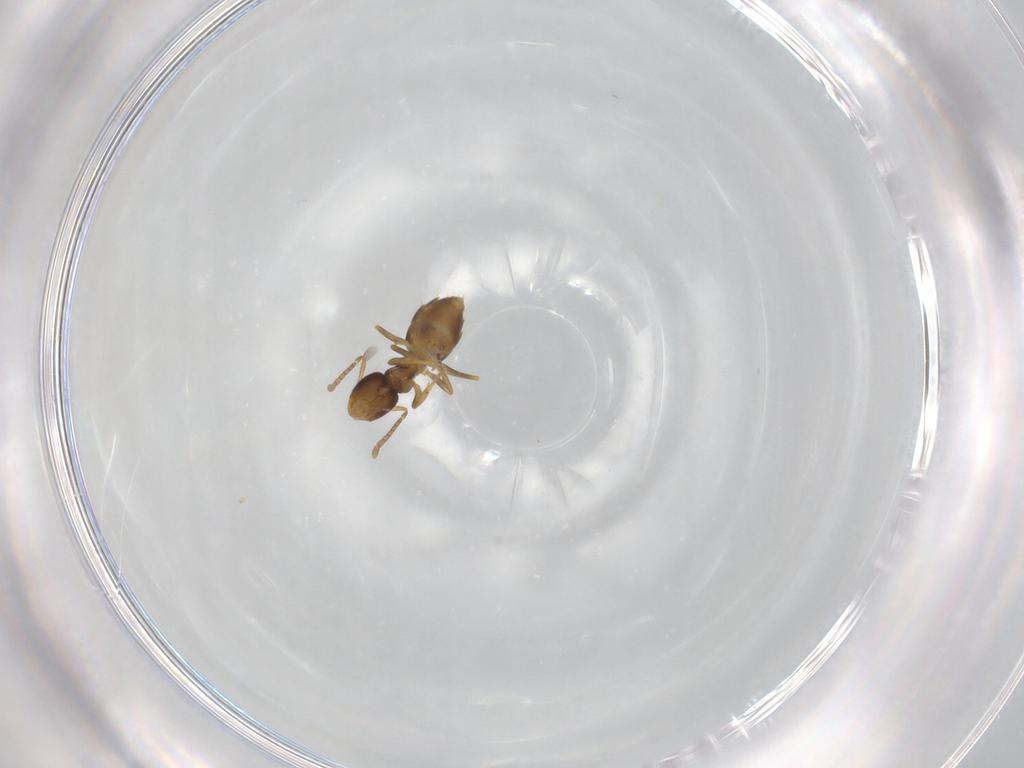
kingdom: Animalia
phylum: Arthropoda
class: Insecta
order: Hymenoptera
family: Formicidae
